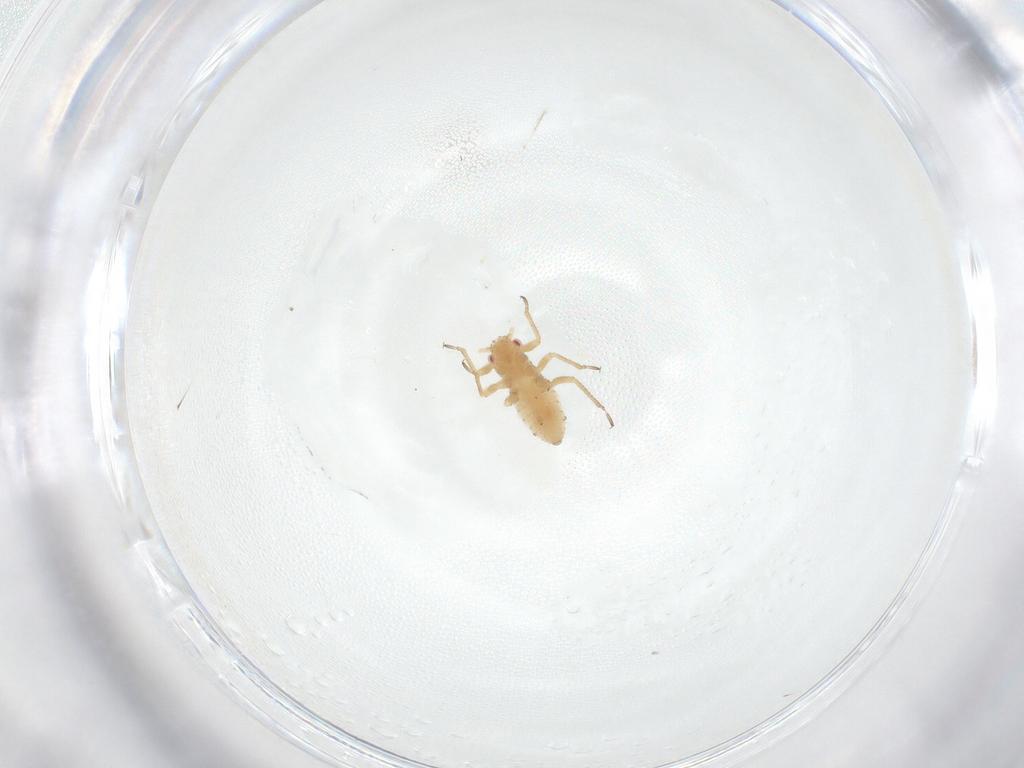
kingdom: Animalia
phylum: Arthropoda
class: Insecta
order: Hemiptera
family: Aphididae
